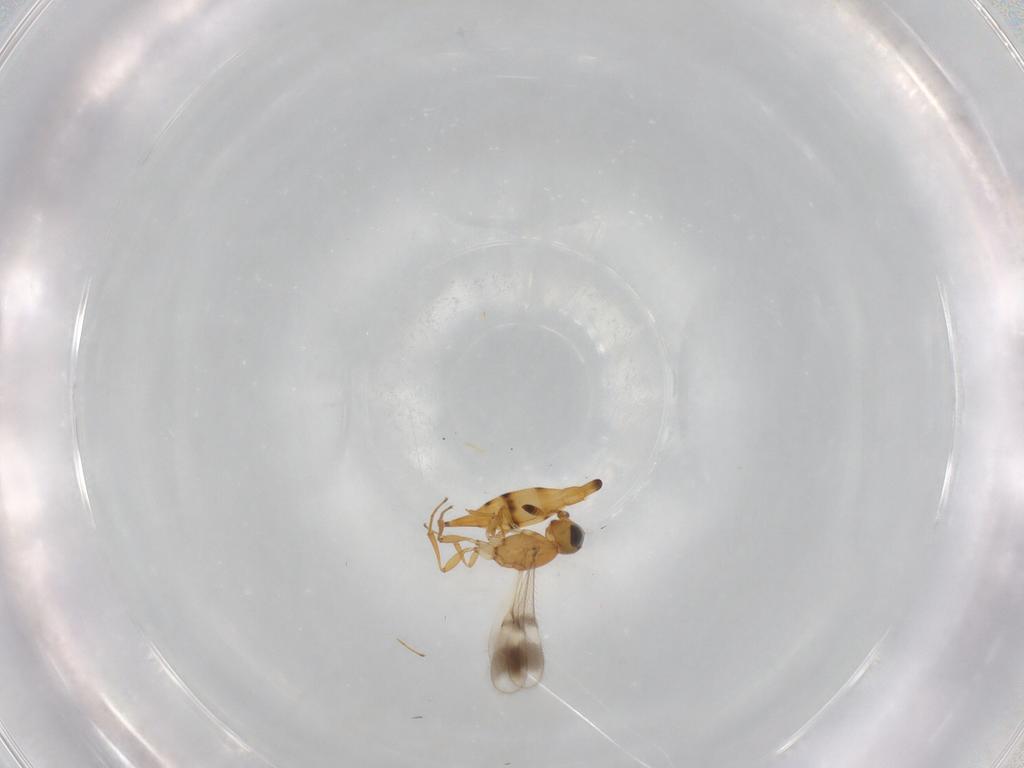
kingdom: Animalia
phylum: Arthropoda
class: Insecta
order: Hymenoptera
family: Scelionidae
